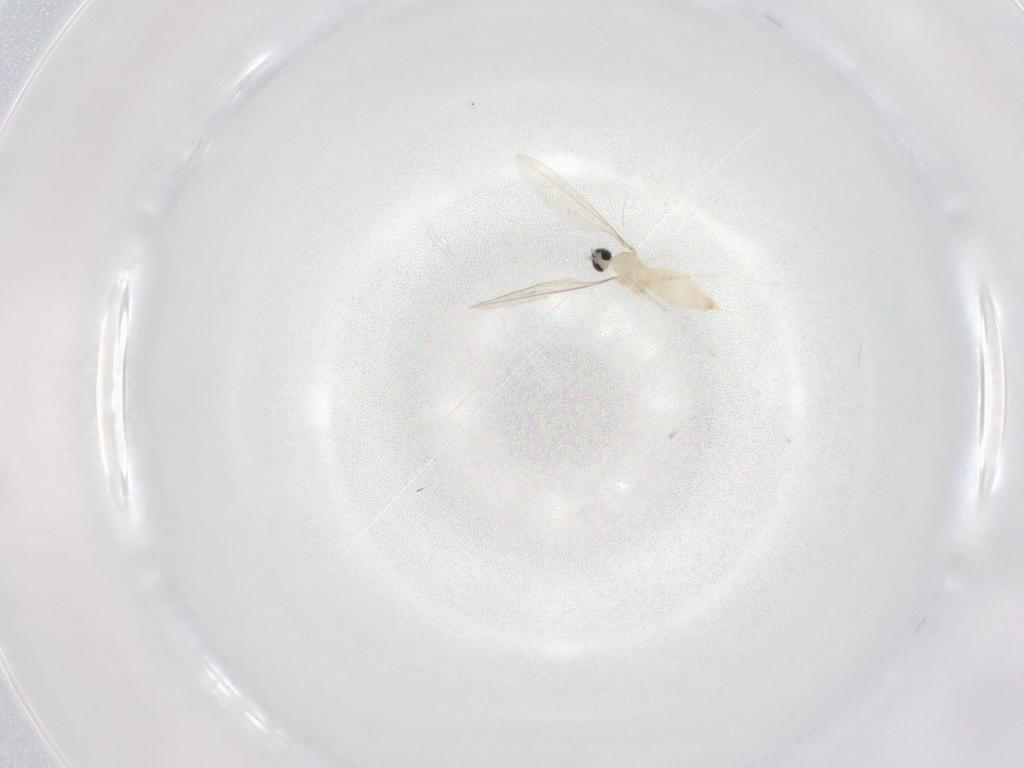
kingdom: Animalia
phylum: Arthropoda
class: Insecta
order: Diptera
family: Cecidomyiidae
